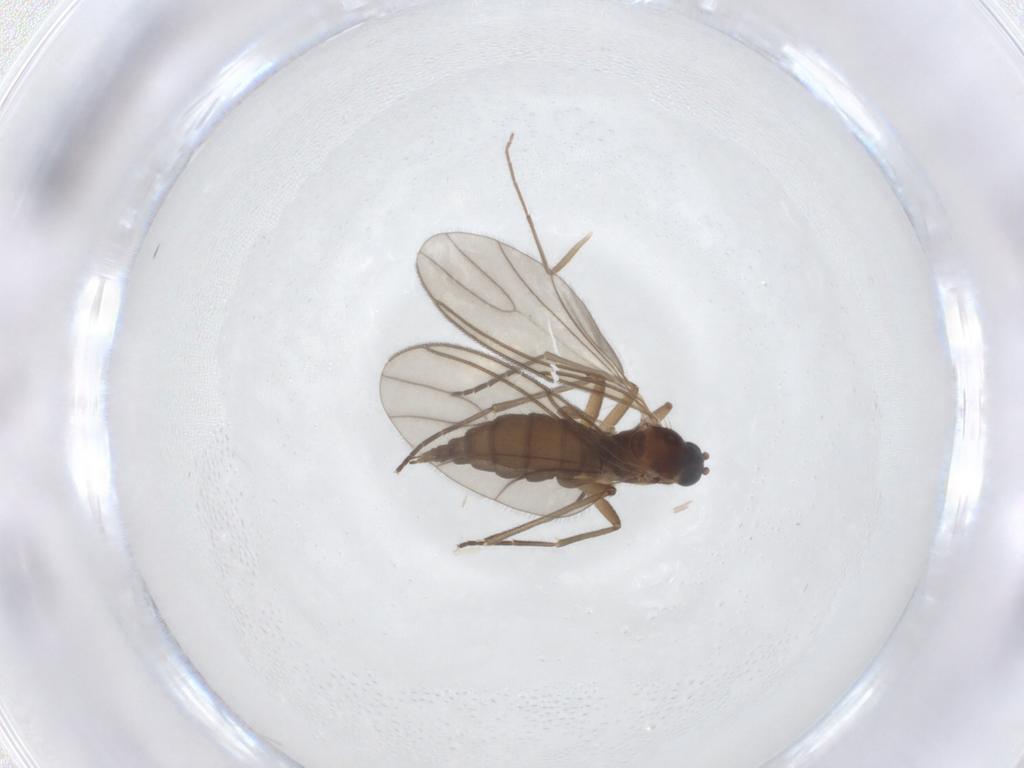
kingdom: Animalia
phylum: Arthropoda
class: Insecta
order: Diptera
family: Sciaridae
